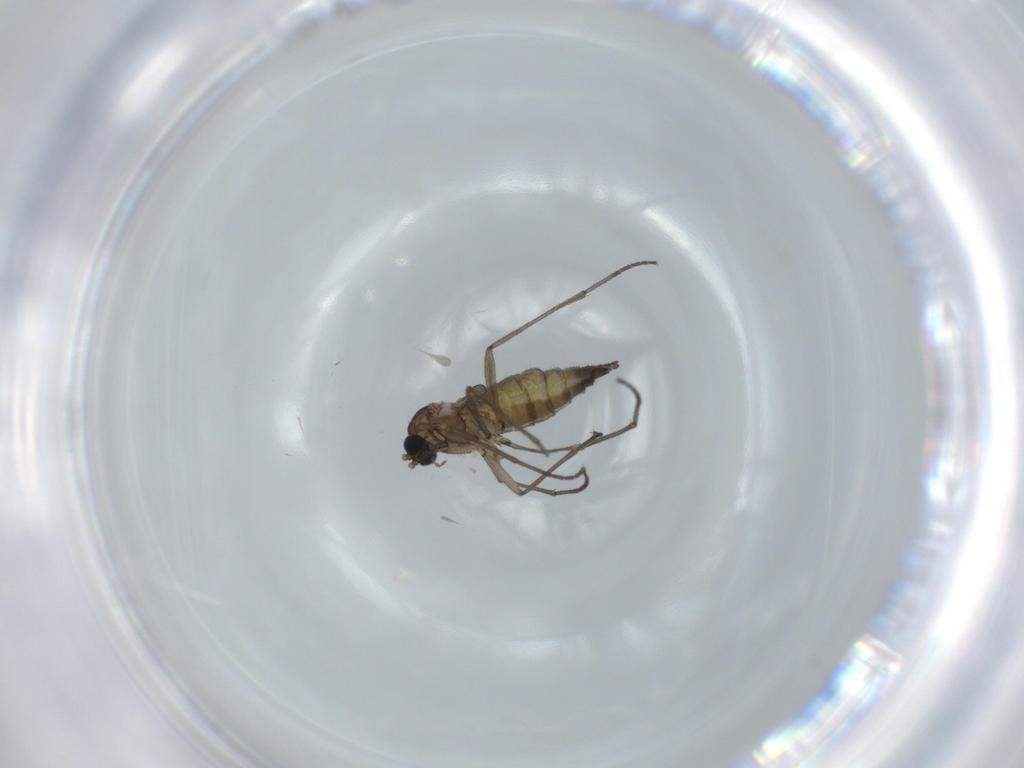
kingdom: Animalia
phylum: Arthropoda
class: Insecta
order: Diptera
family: Sciaridae
